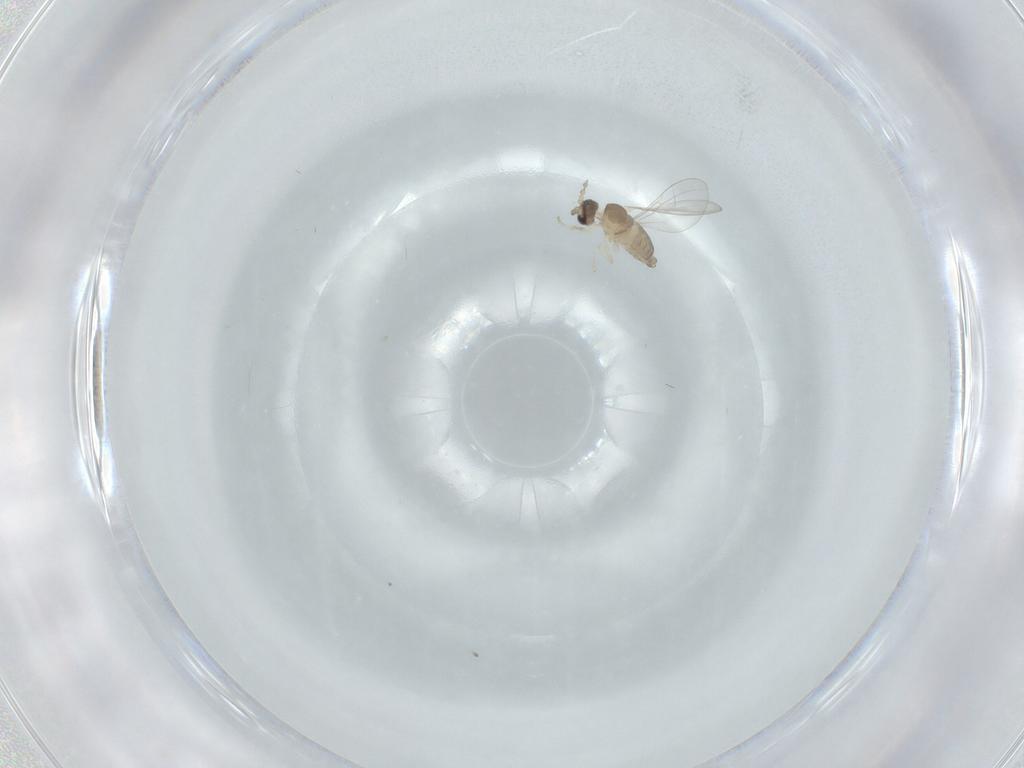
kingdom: Animalia
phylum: Arthropoda
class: Insecta
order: Diptera
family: Cecidomyiidae
